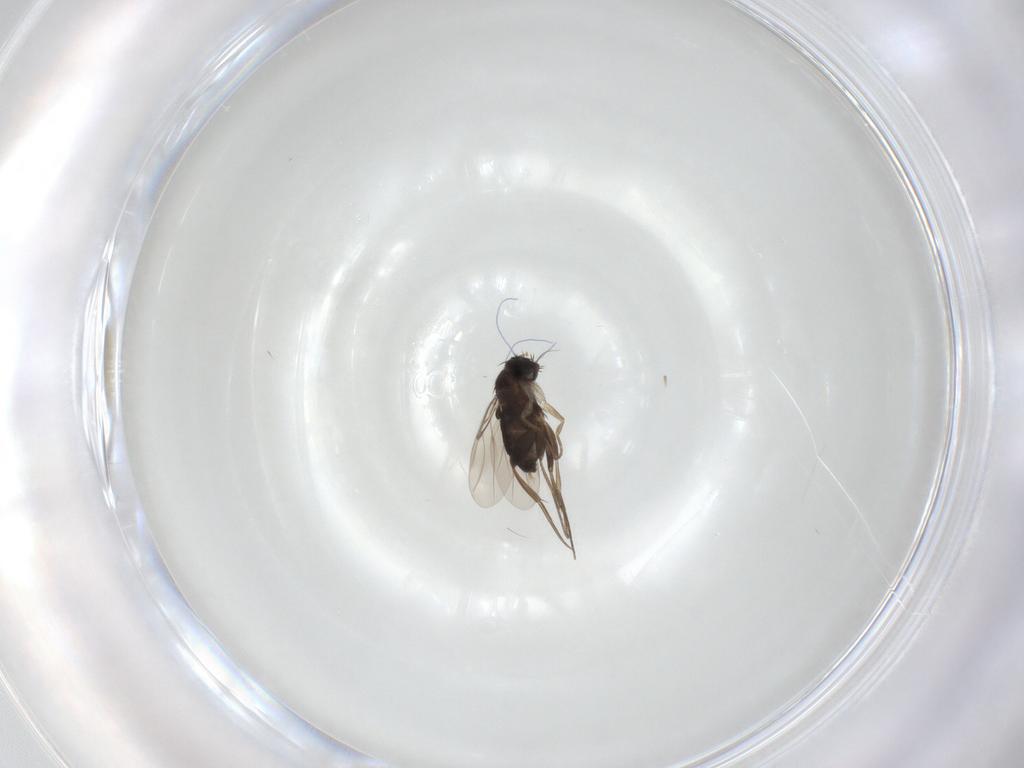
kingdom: Animalia
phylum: Arthropoda
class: Insecta
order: Diptera
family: Phoridae
